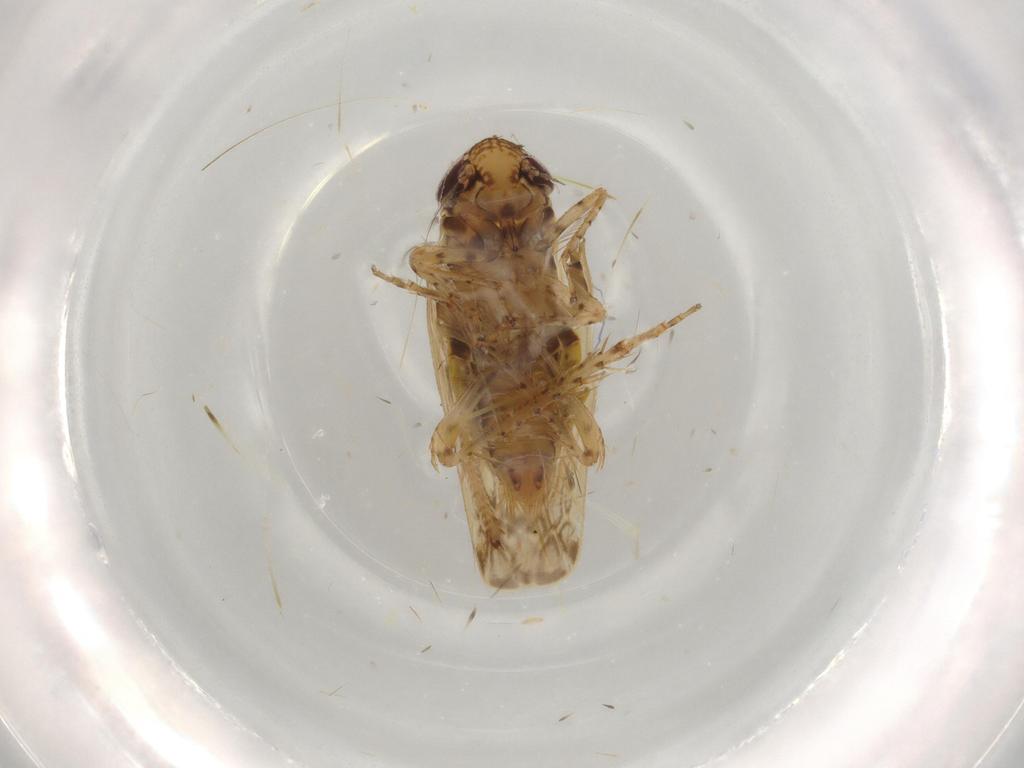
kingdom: Animalia
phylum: Arthropoda
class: Insecta
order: Hemiptera
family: Cicadellidae
